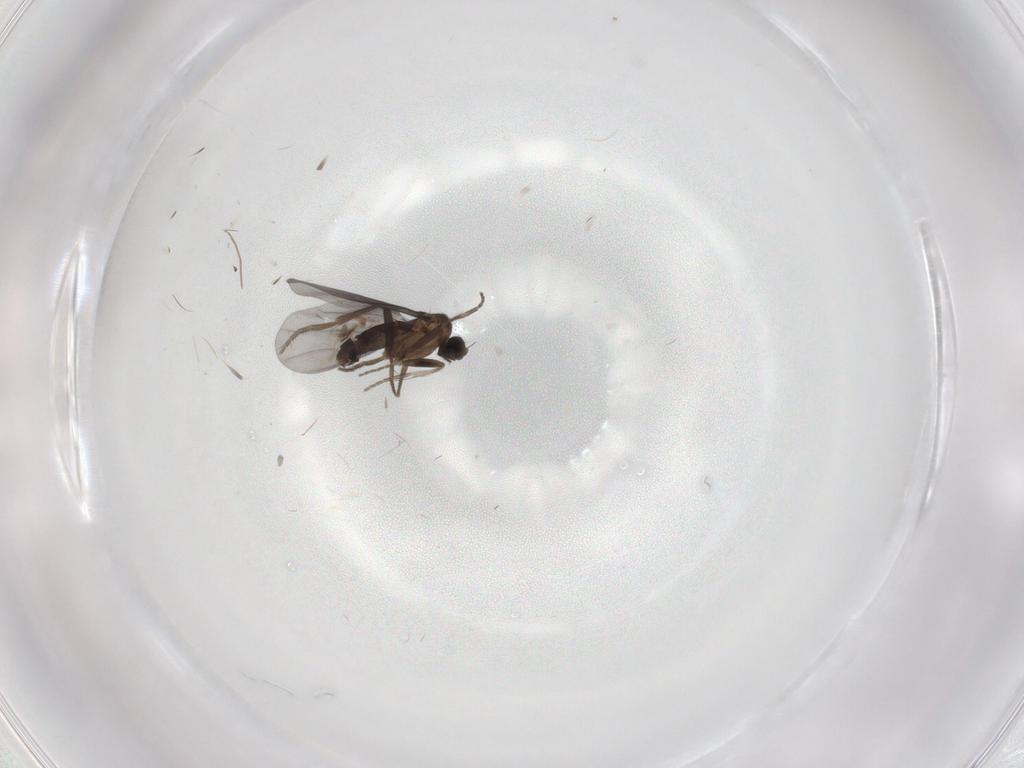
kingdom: Animalia
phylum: Arthropoda
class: Insecta
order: Diptera
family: Phoridae
